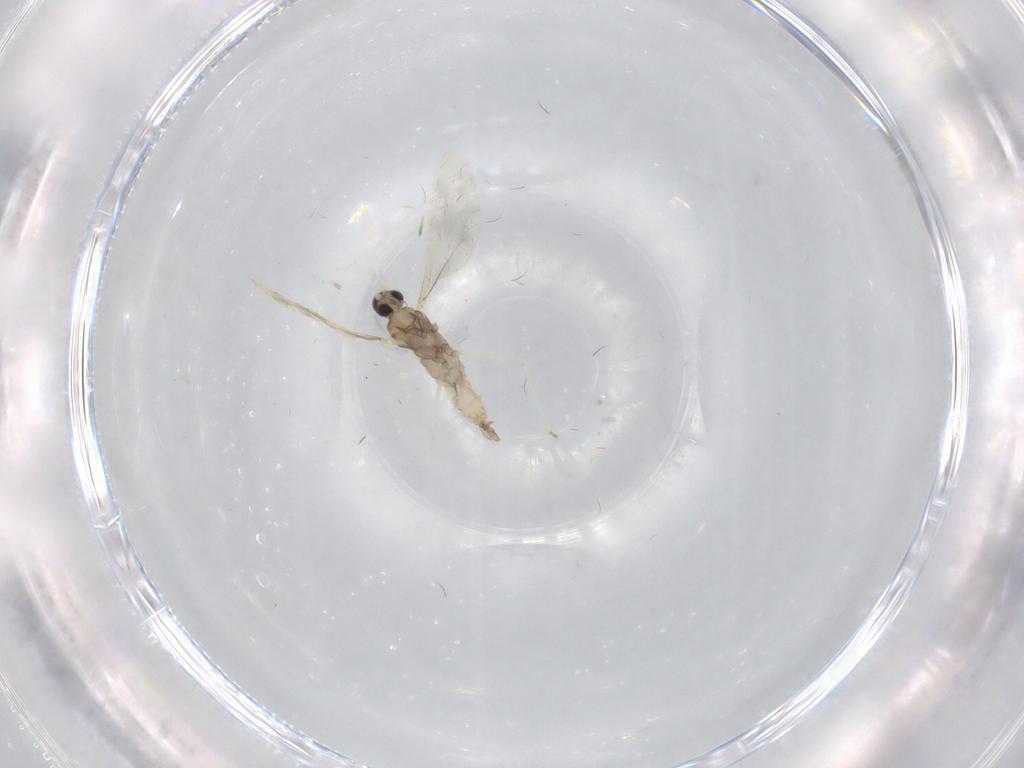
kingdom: Animalia
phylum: Arthropoda
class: Insecta
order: Diptera
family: Cecidomyiidae
